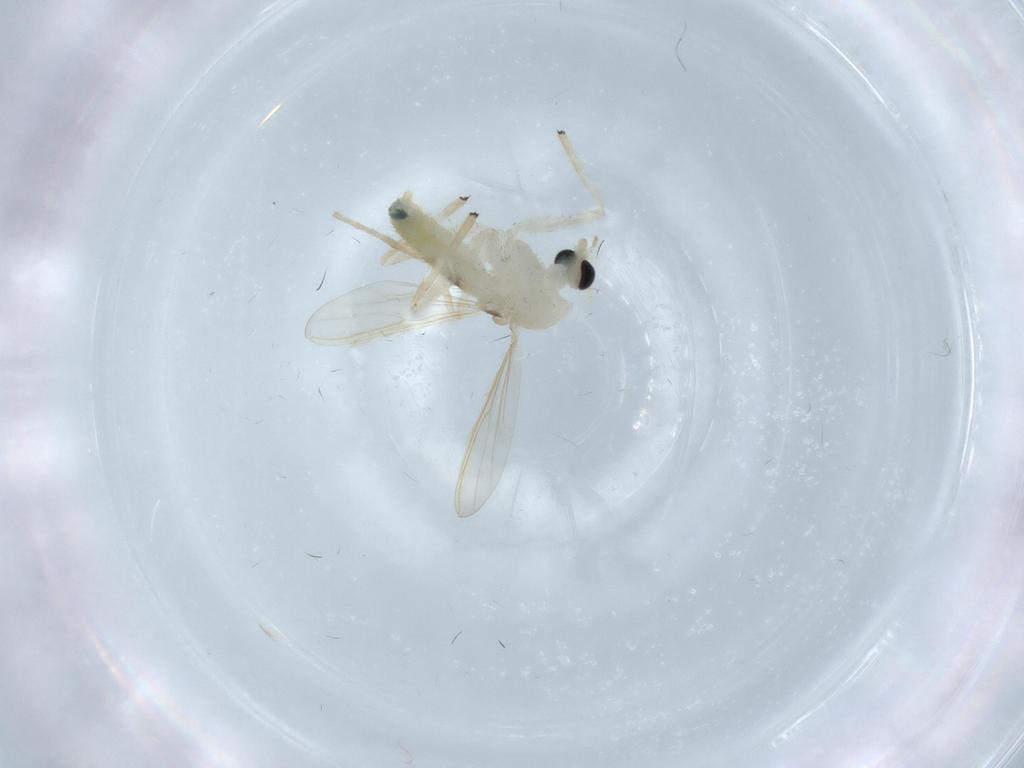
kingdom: Animalia
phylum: Arthropoda
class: Insecta
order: Diptera
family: Chironomidae
